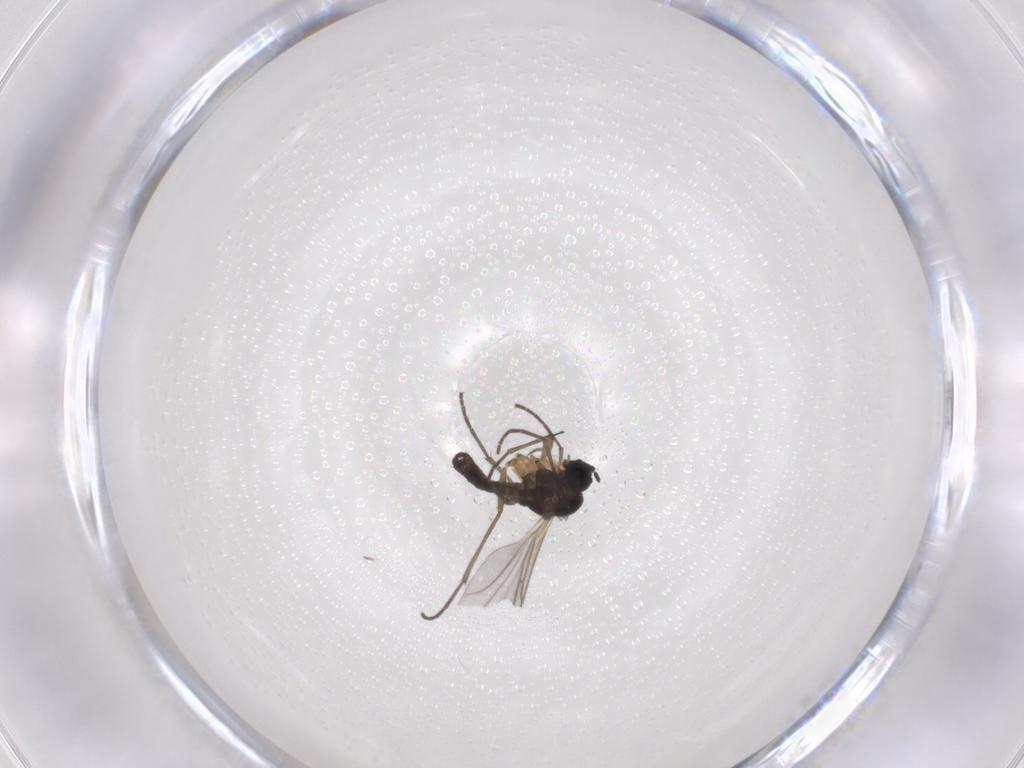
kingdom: Animalia
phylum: Arthropoda
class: Insecta
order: Diptera
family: Sciaridae
